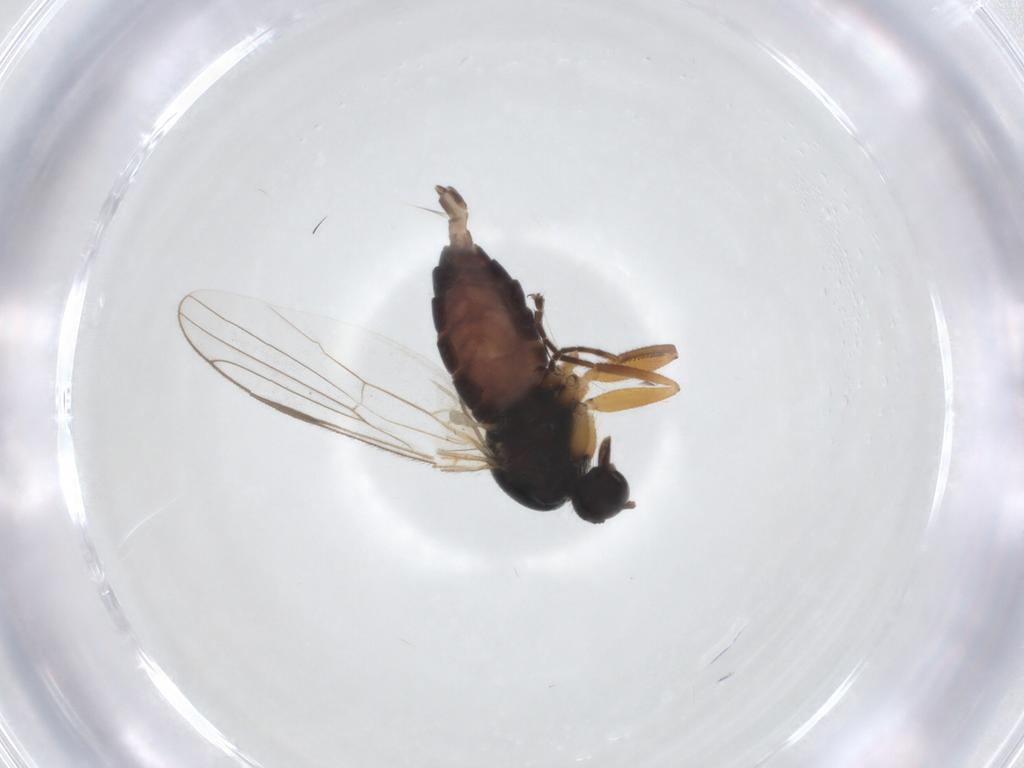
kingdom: Animalia
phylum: Arthropoda
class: Insecta
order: Diptera
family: Hybotidae
